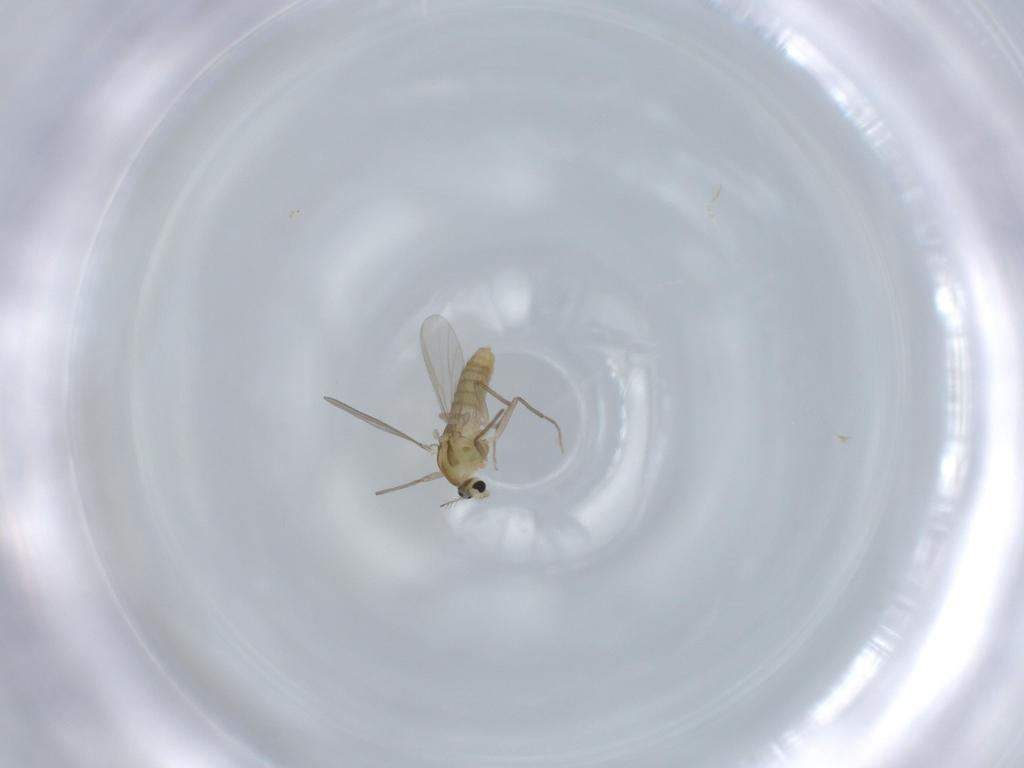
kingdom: Animalia
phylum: Arthropoda
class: Insecta
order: Diptera
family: Chironomidae
